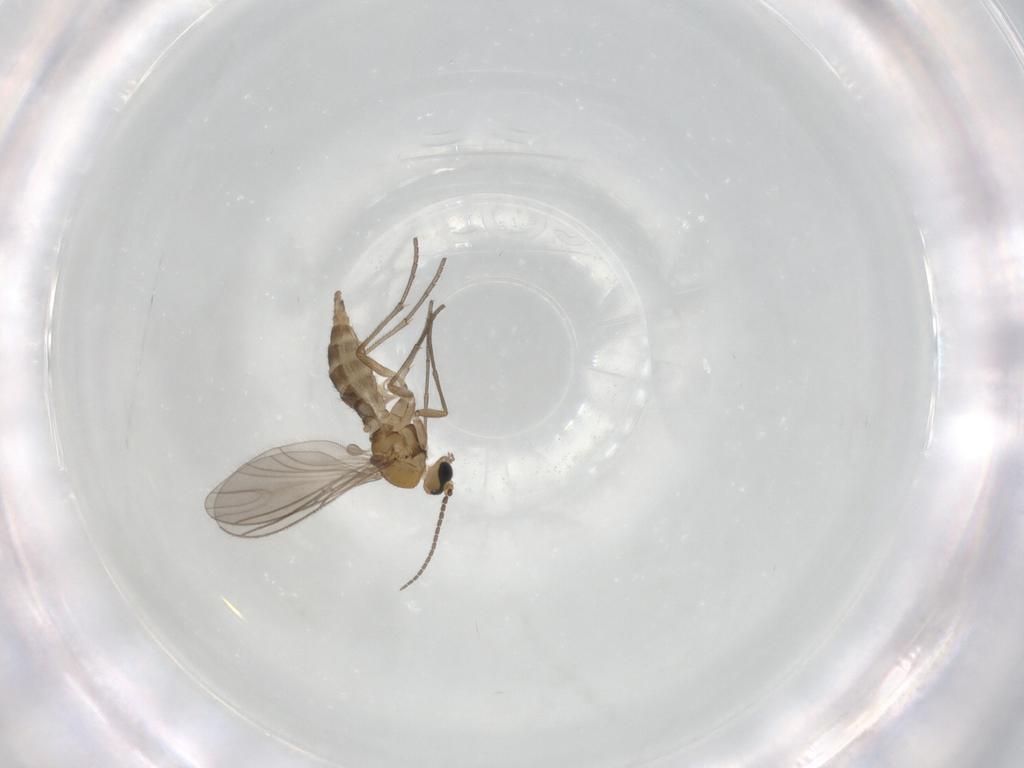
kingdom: Animalia
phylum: Arthropoda
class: Insecta
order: Diptera
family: Sciaridae
